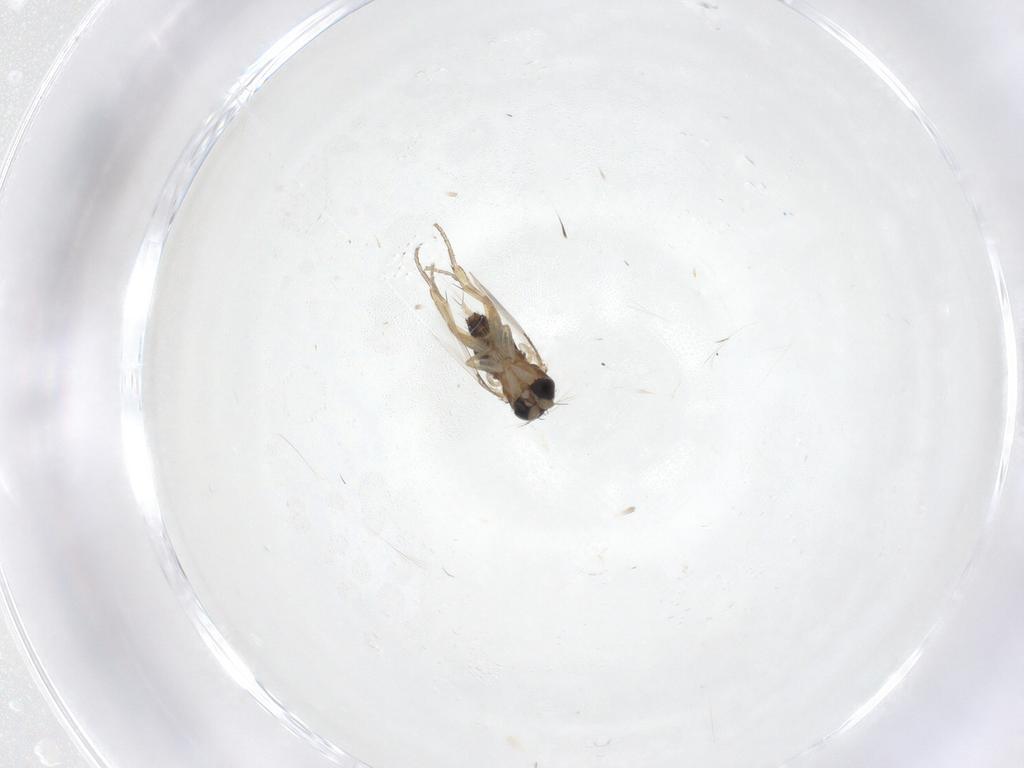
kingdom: Animalia
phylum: Arthropoda
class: Insecta
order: Diptera
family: Chironomidae
